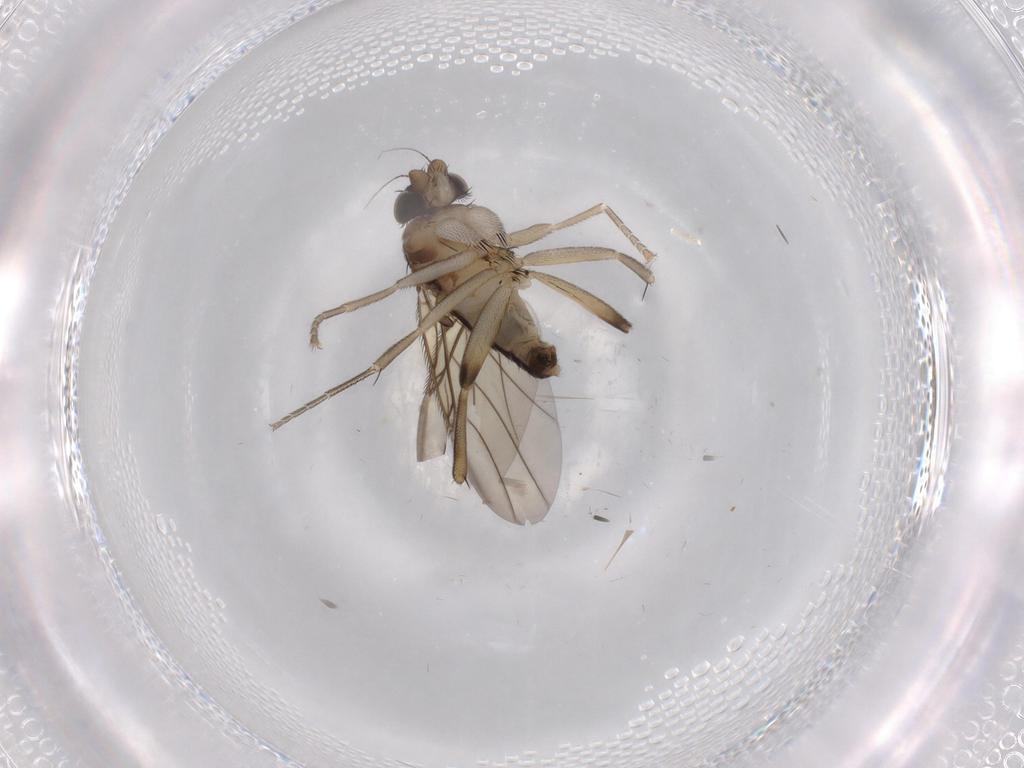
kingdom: Animalia
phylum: Arthropoda
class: Insecta
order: Diptera
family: Phoridae
